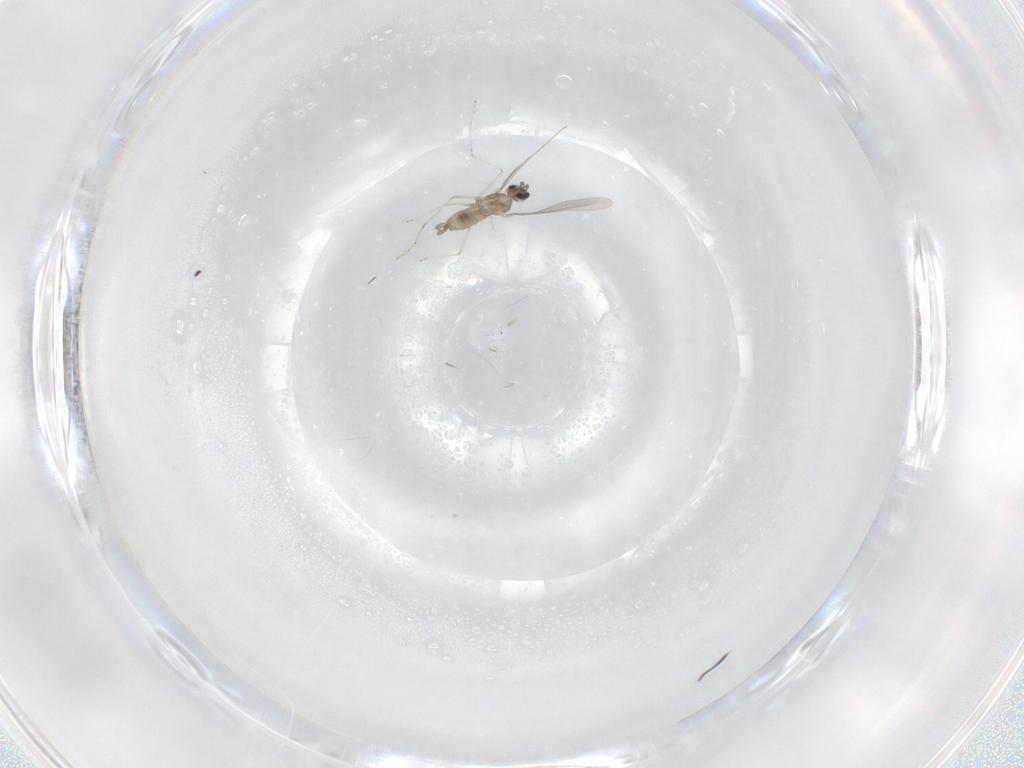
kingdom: Animalia
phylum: Arthropoda
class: Insecta
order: Diptera
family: Cecidomyiidae
